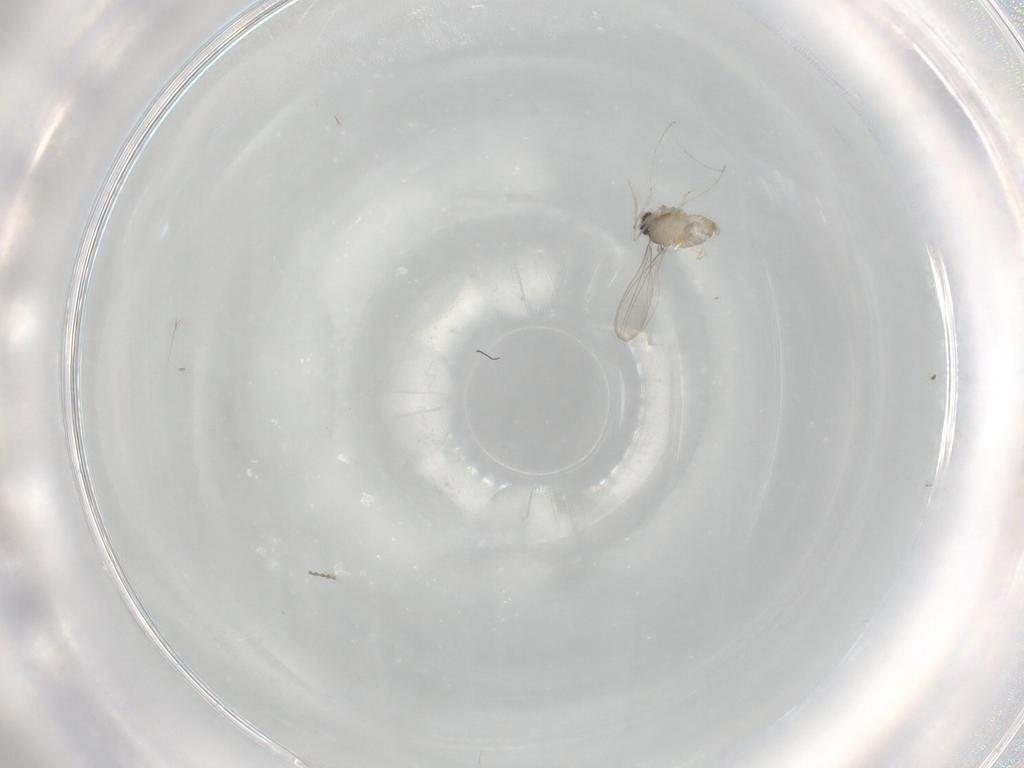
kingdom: Animalia
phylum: Arthropoda
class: Insecta
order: Diptera
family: Cecidomyiidae
